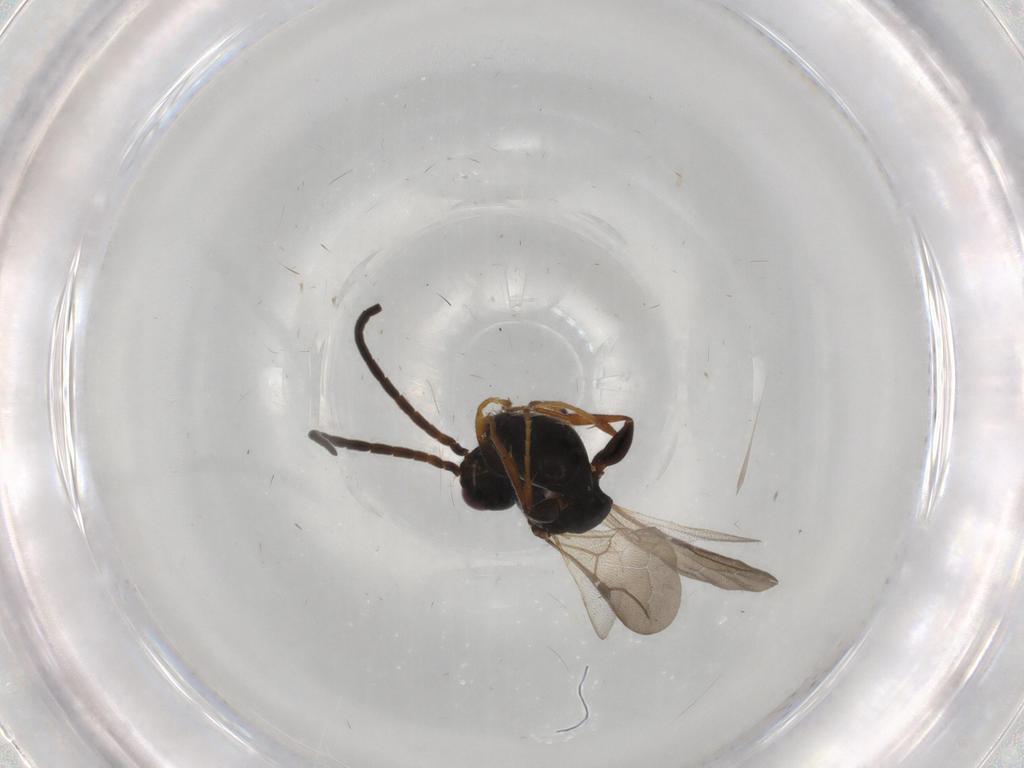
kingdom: Animalia
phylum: Arthropoda
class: Insecta
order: Hymenoptera
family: Bethylidae
